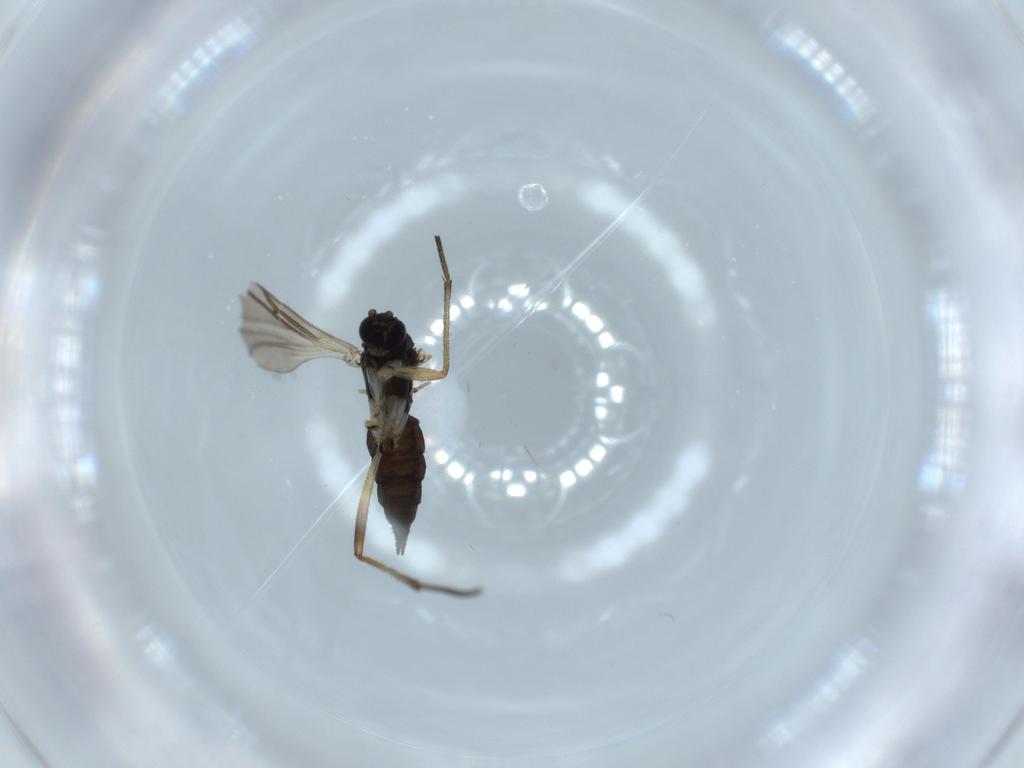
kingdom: Animalia
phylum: Arthropoda
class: Insecta
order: Diptera
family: Sciaridae
